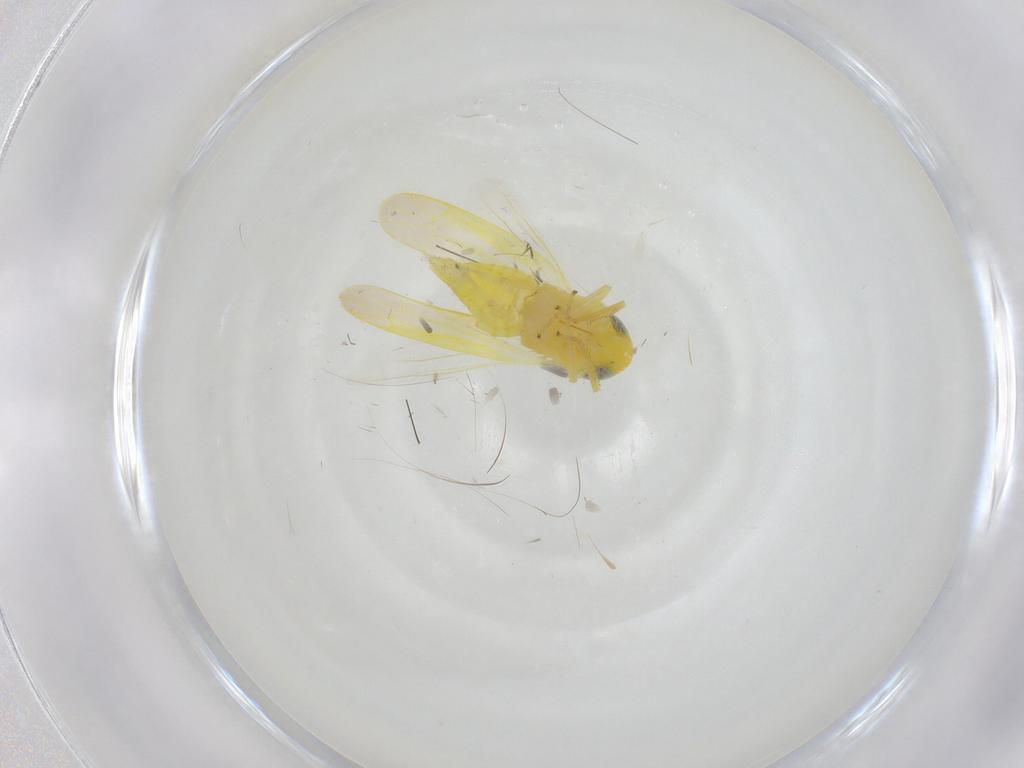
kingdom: Animalia
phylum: Arthropoda
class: Insecta
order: Hemiptera
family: Cicadellidae
